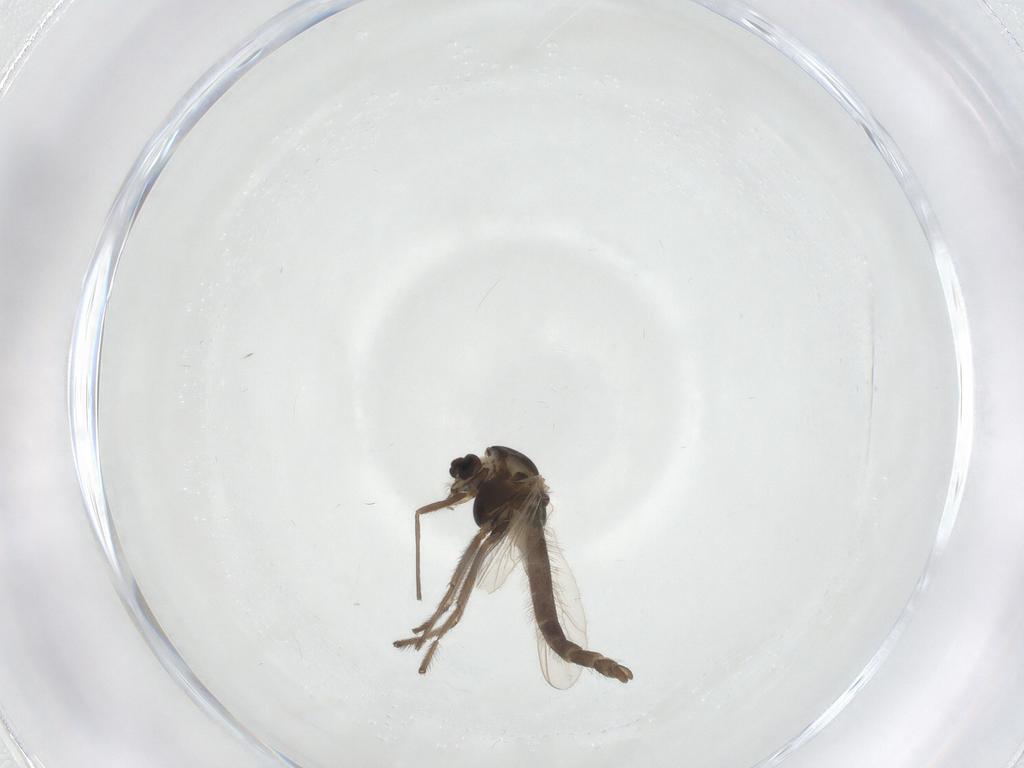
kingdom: Animalia
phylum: Arthropoda
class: Insecta
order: Diptera
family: Chironomidae
